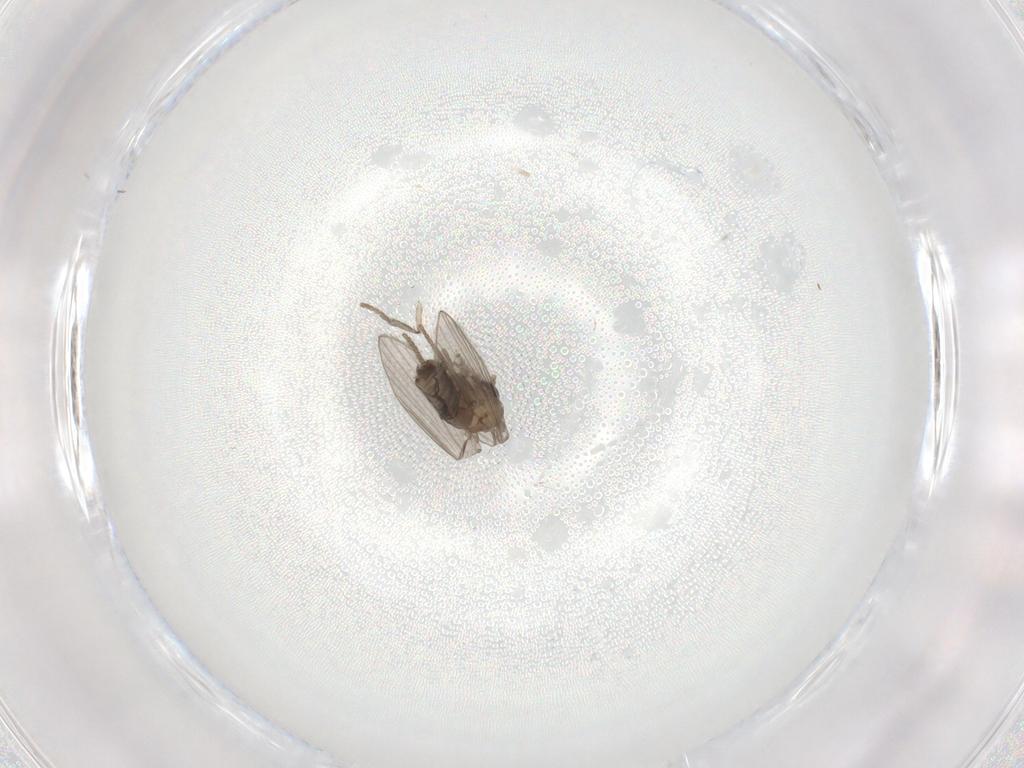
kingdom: Animalia
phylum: Arthropoda
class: Insecta
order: Diptera
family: Psychodidae
